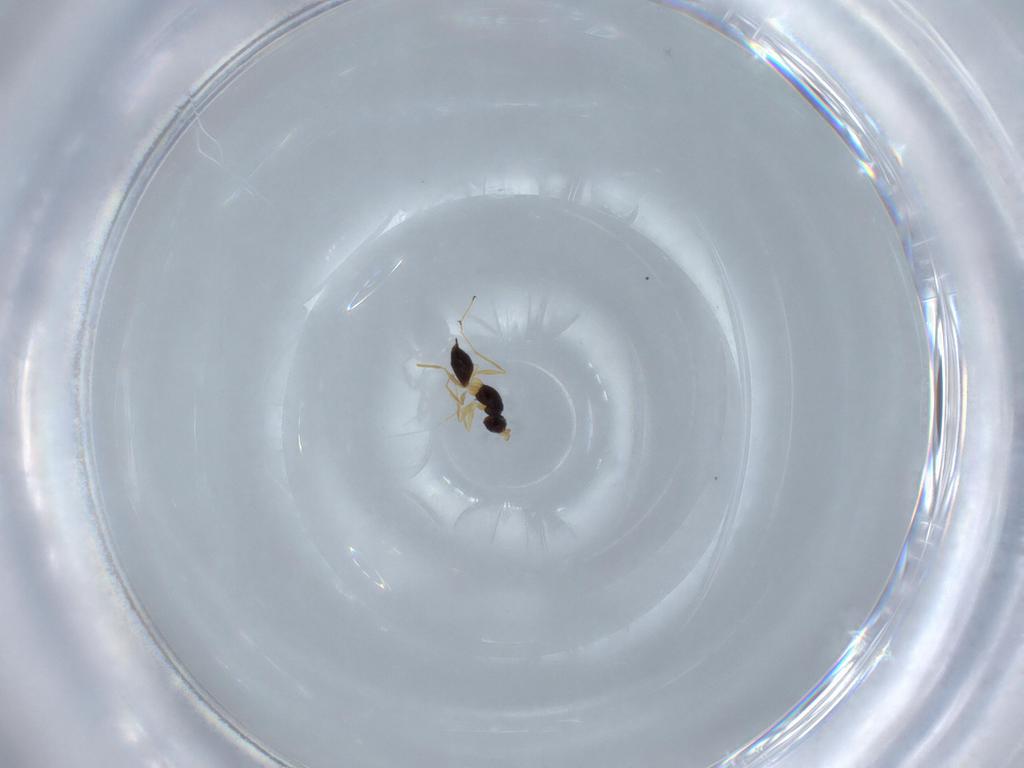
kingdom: Animalia
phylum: Arthropoda
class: Insecta
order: Hymenoptera
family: Mymaridae
